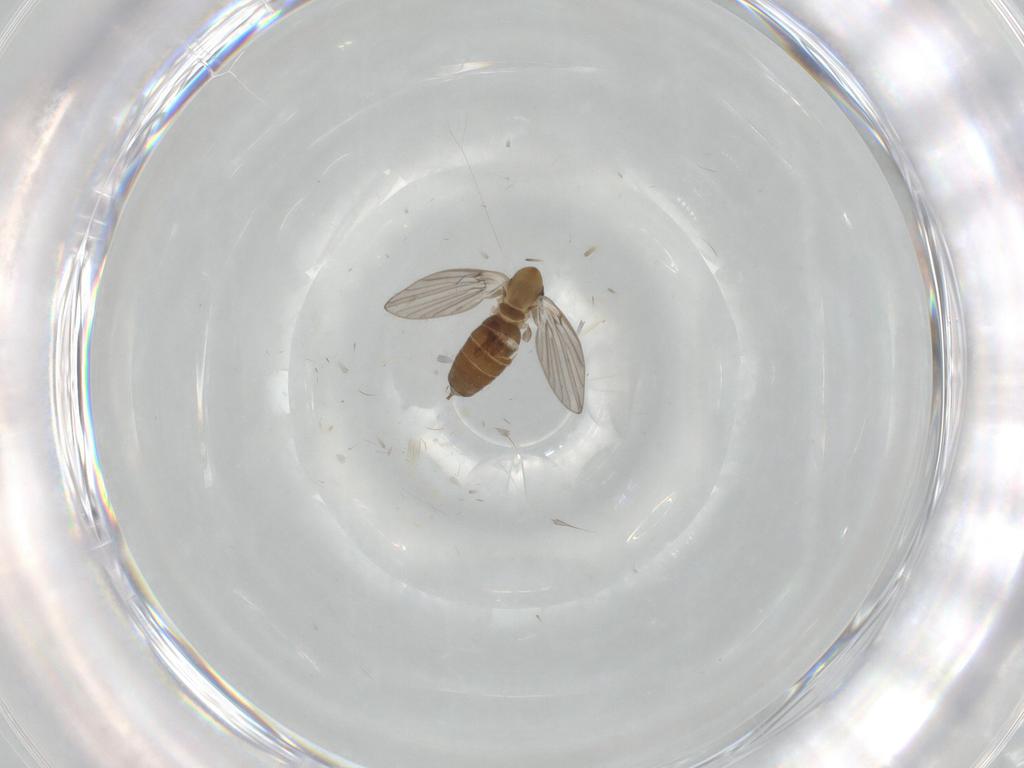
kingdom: Animalia
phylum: Arthropoda
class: Insecta
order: Diptera
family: Psychodidae
